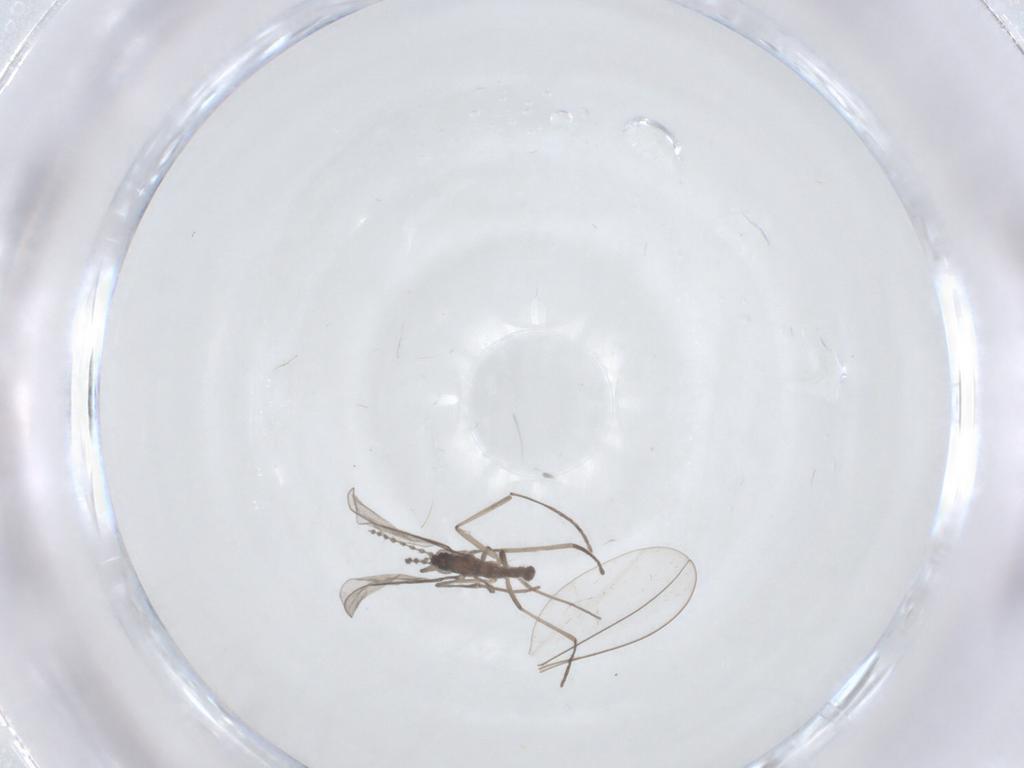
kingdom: Animalia
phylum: Arthropoda
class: Insecta
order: Diptera
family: Cecidomyiidae
